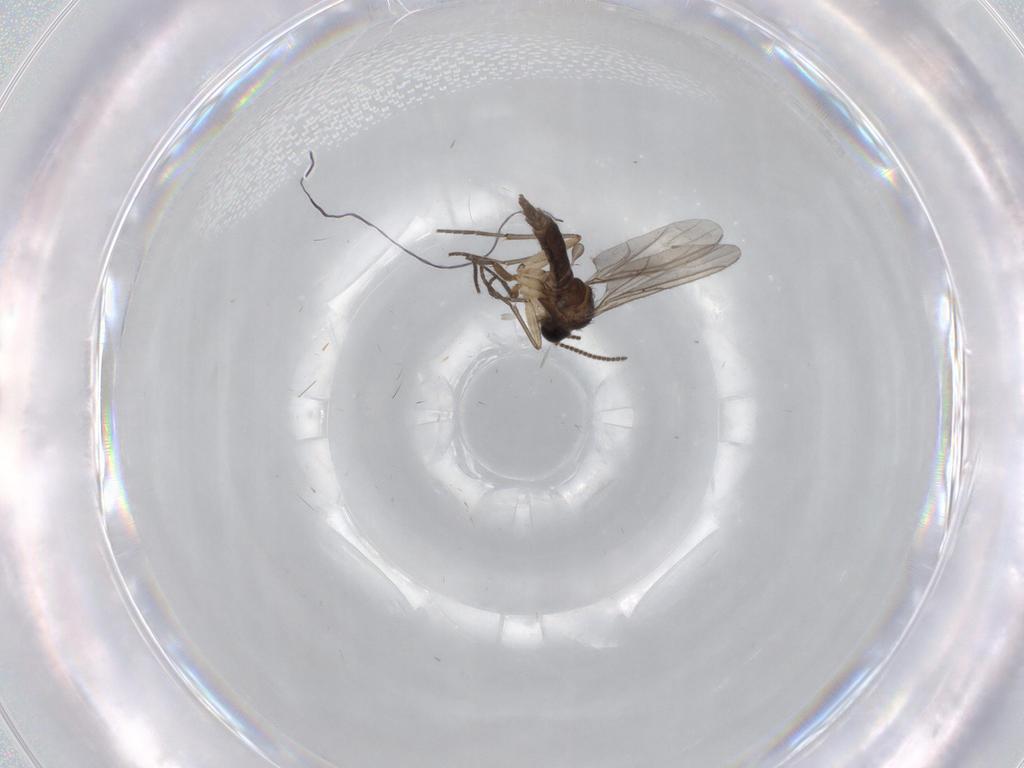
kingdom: Animalia
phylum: Arthropoda
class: Insecta
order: Diptera
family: Sciaridae
